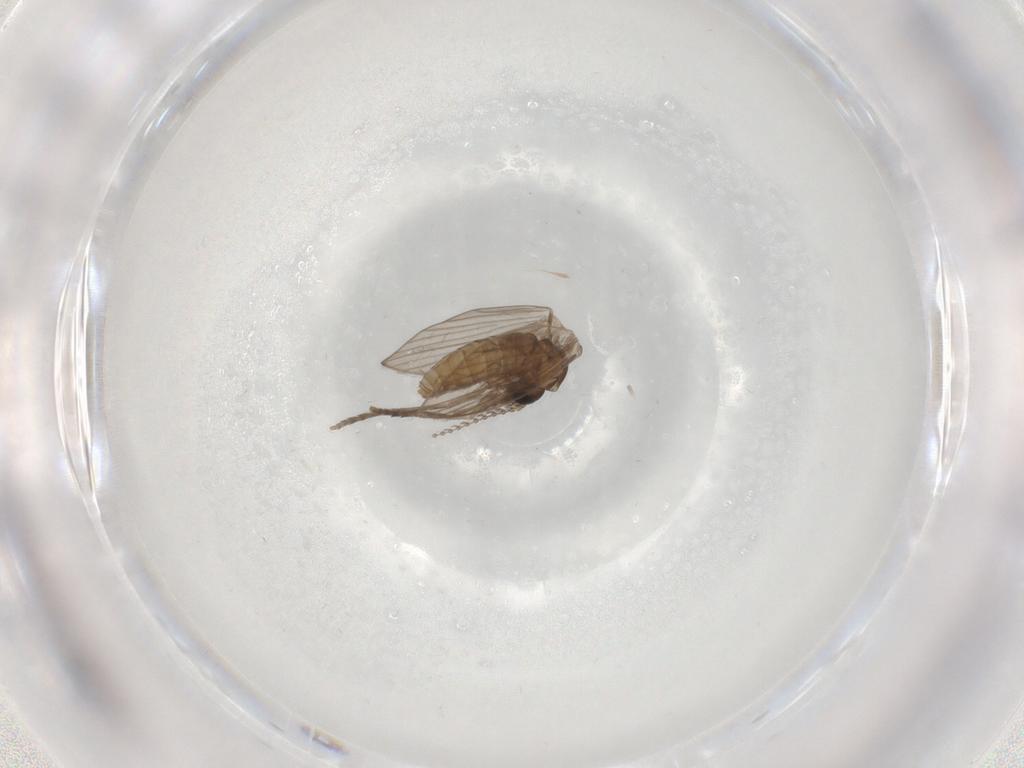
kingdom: Animalia
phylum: Arthropoda
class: Insecta
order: Diptera
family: Psychodidae
